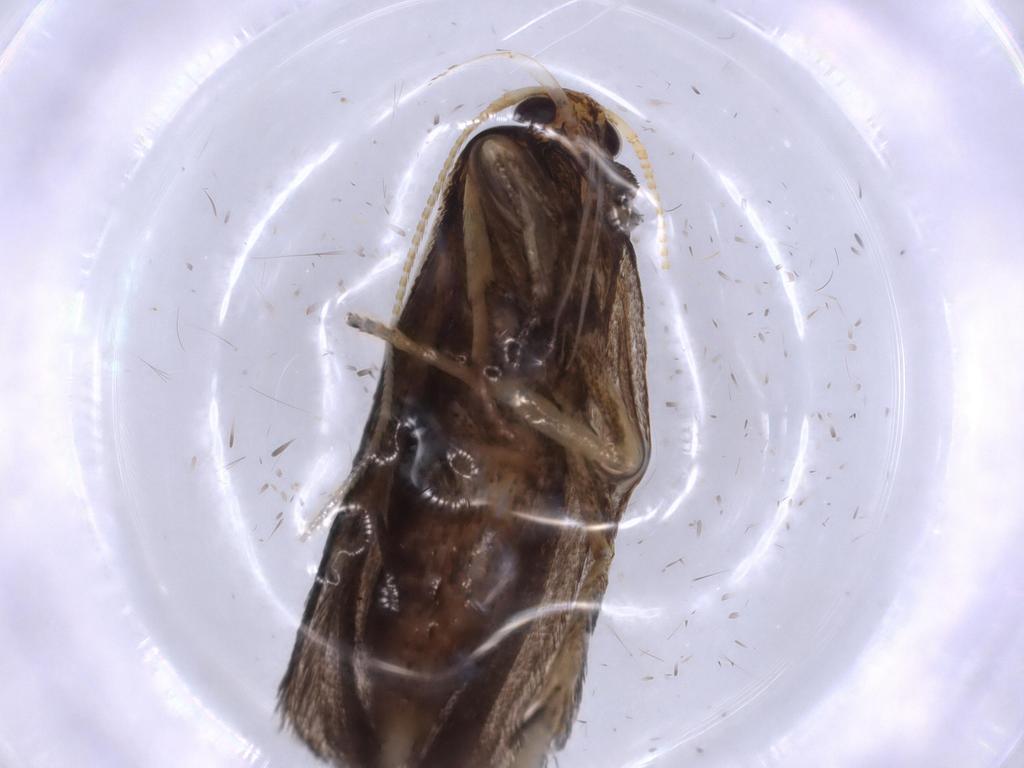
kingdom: Animalia
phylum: Arthropoda
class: Insecta
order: Lepidoptera
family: Lecithoceridae
